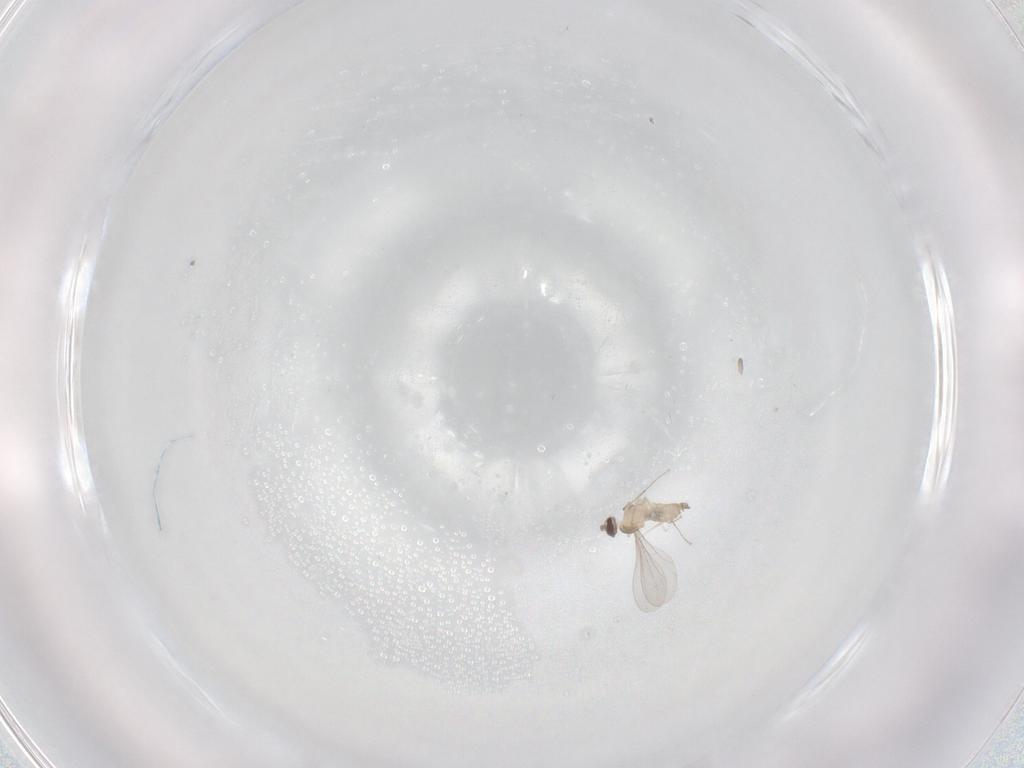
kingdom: Animalia
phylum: Arthropoda
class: Insecta
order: Diptera
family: Cecidomyiidae
